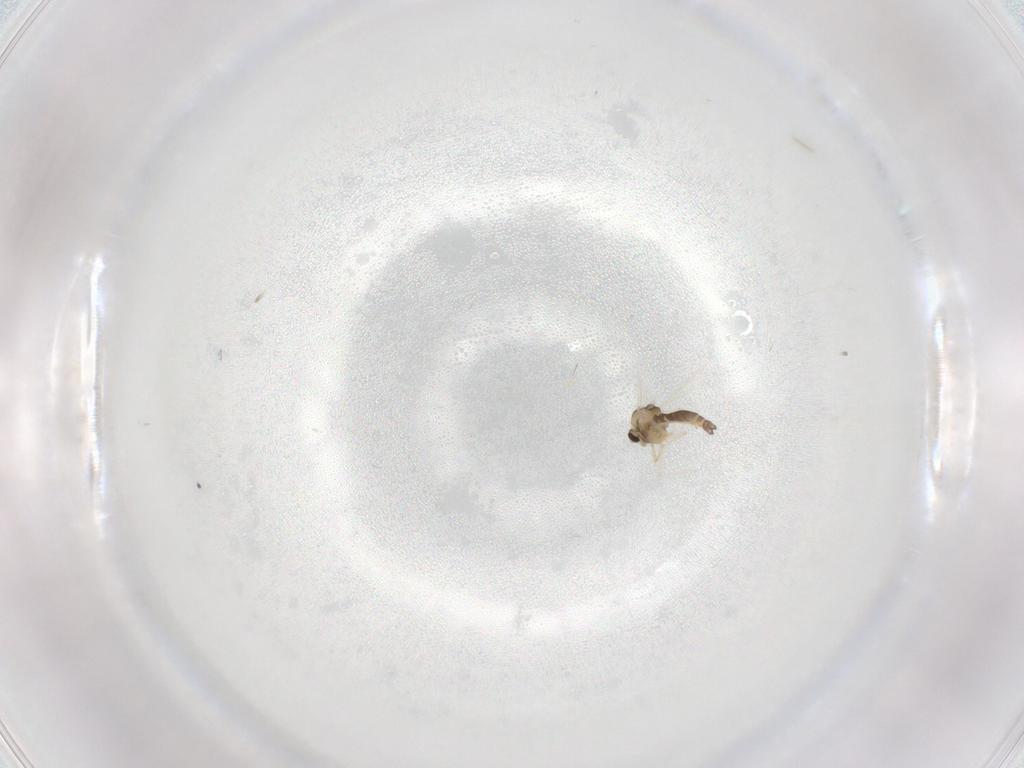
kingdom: Animalia
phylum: Arthropoda
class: Insecta
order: Diptera
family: Chironomidae
